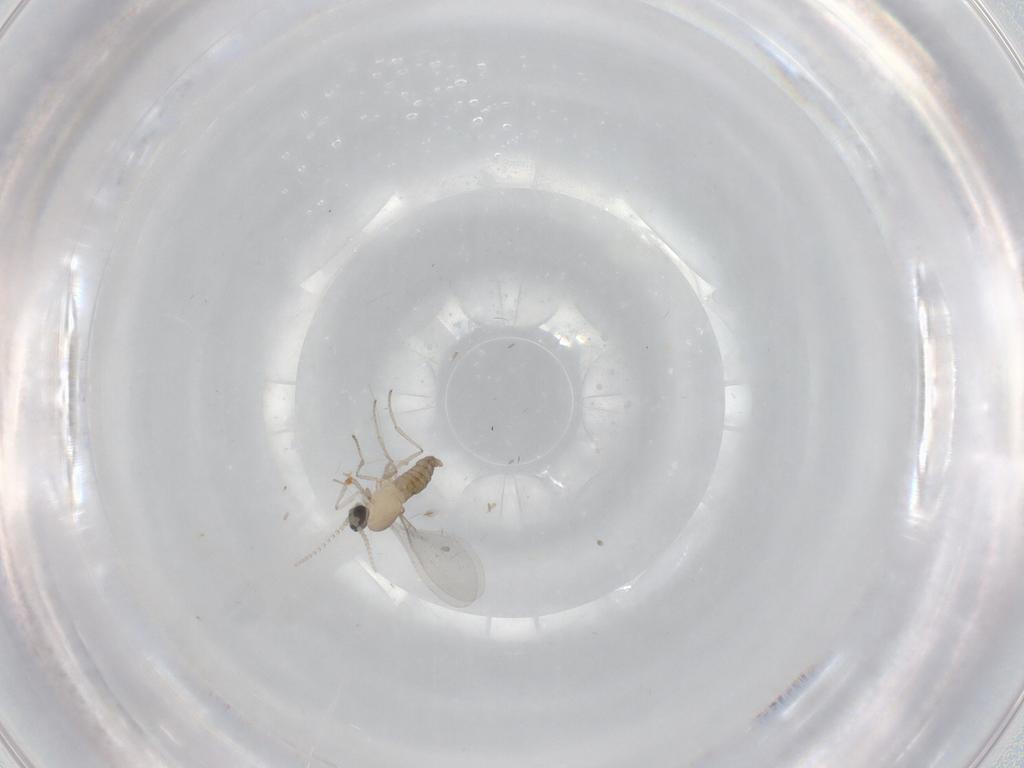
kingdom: Animalia
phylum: Arthropoda
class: Insecta
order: Diptera
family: Cecidomyiidae
